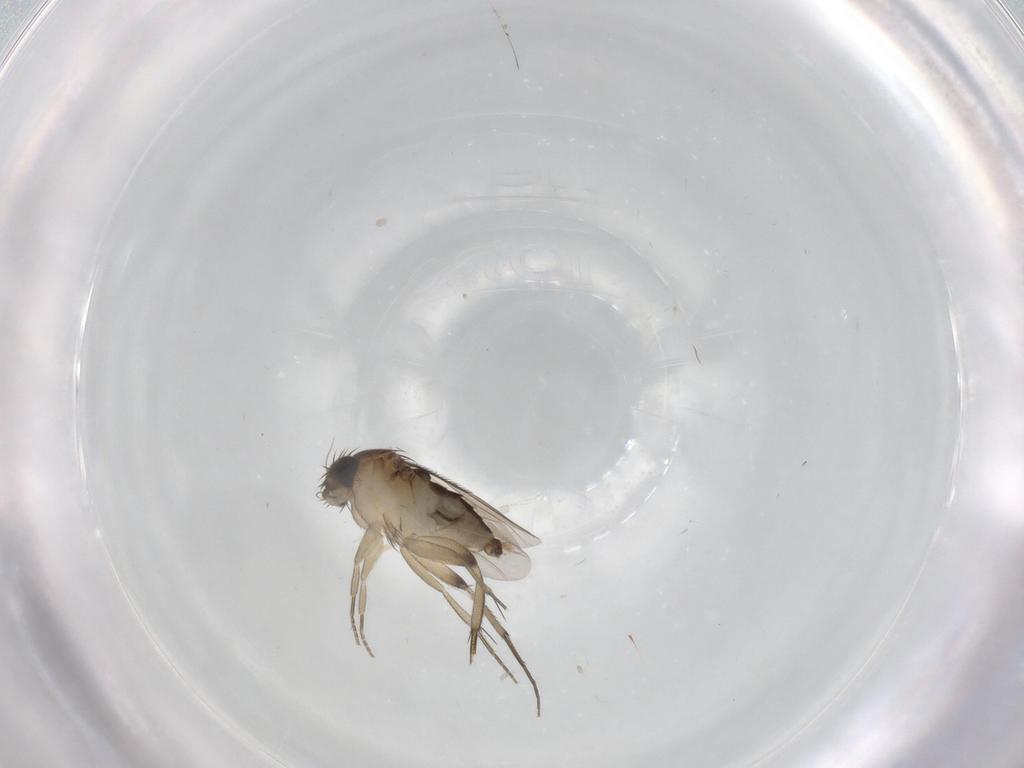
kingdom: Animalia
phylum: Arthropoda
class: Insecta
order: Diptera
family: Phoridae
